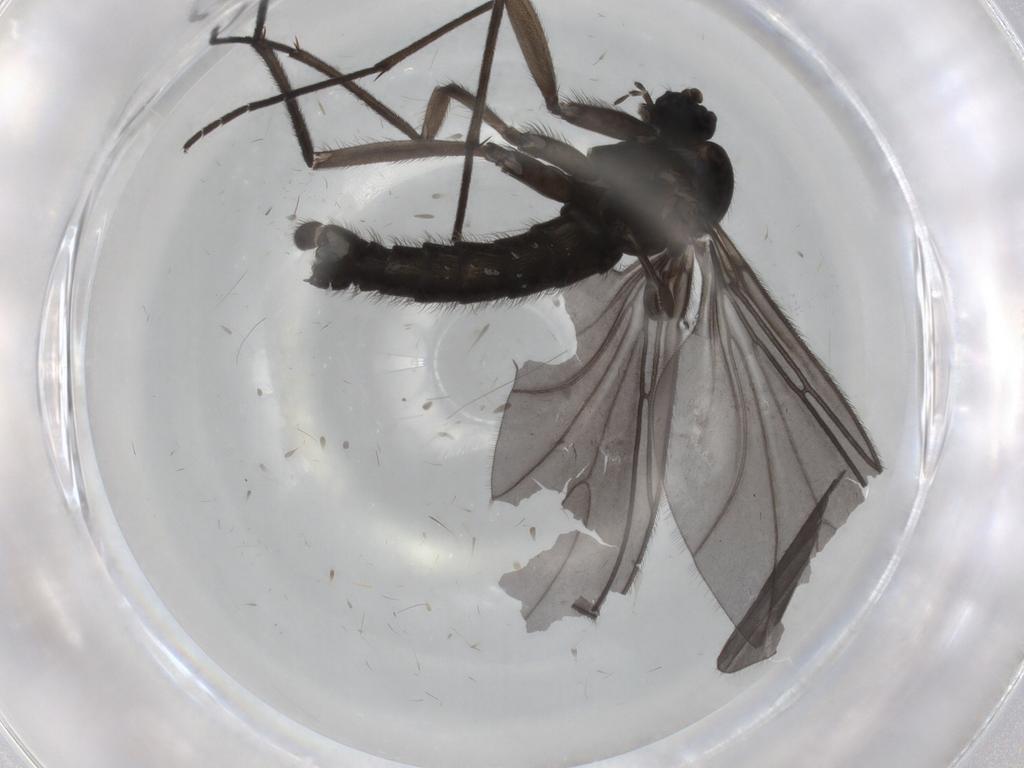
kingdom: Animalia
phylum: Arthropoda
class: Insecta
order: Diptera
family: Sciaridae
